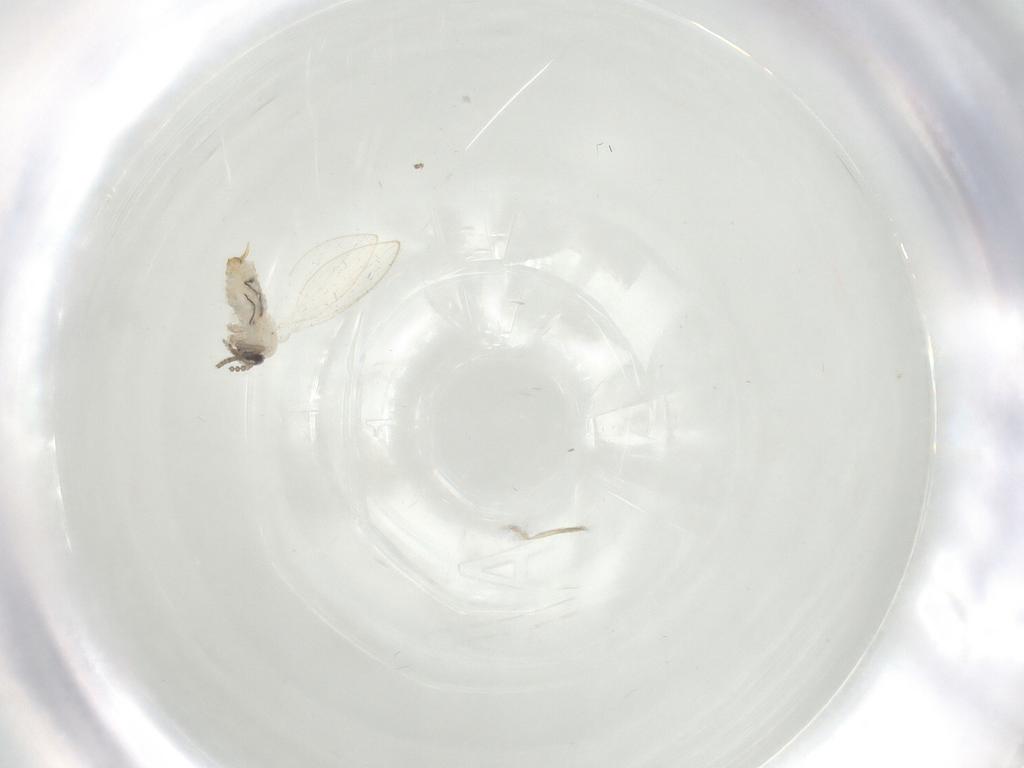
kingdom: Animalia
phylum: Arthropoda
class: Insecta
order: Diptera
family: Psychodidae
